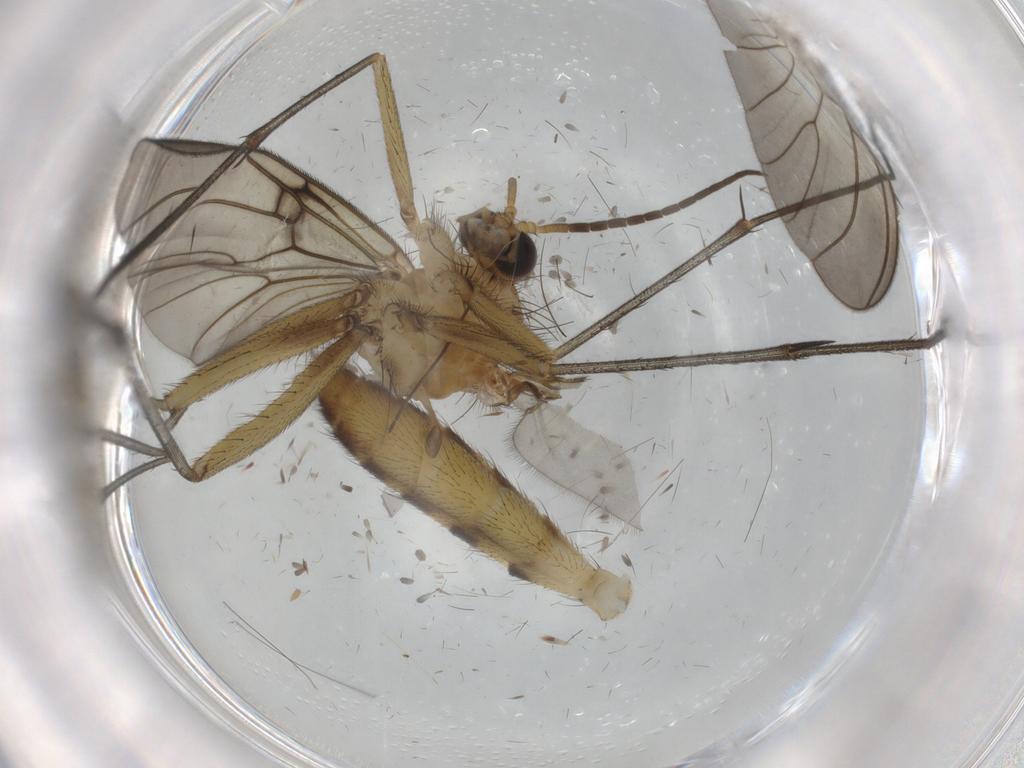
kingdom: Animalia
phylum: Arthropoda
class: Insecta
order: Diptera
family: Mycetophilidae
